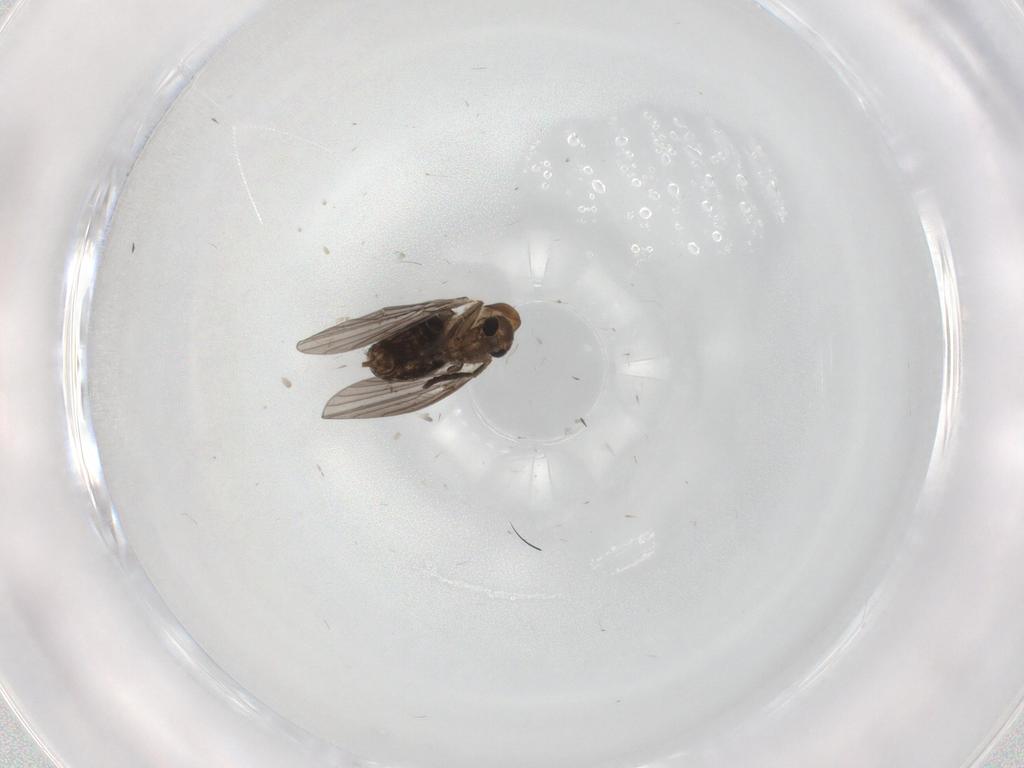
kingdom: Animalia
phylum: Arthropoda
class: Insecta
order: Diptera
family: Psychodidae
